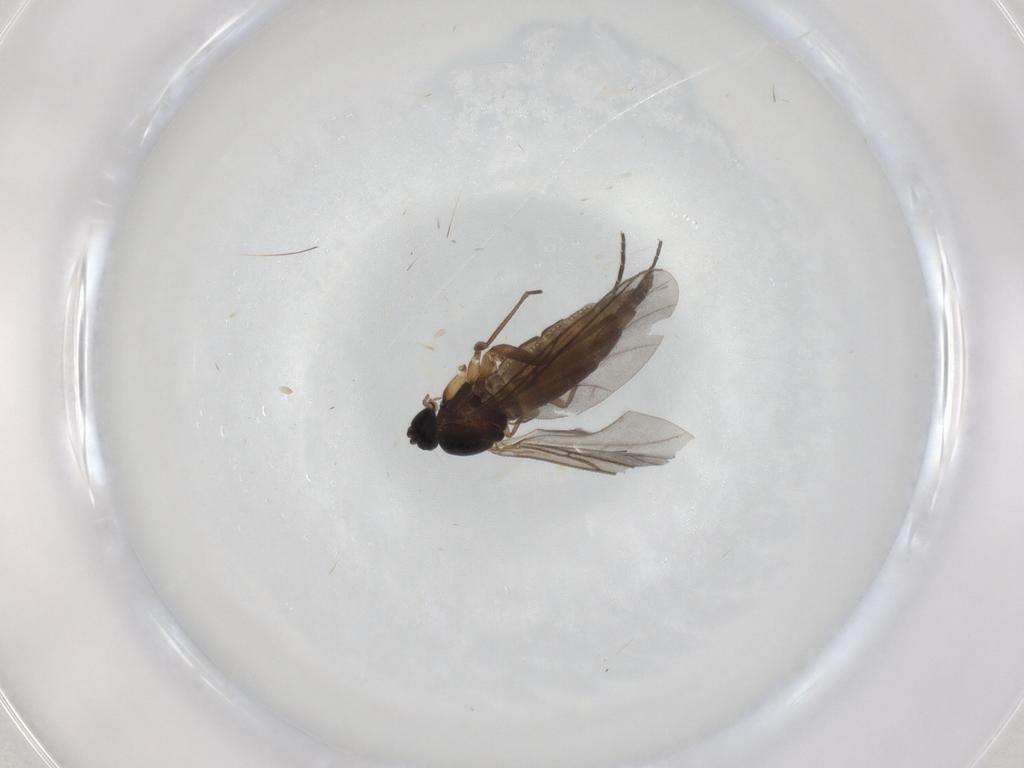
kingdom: Animalia
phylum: Arthropoda
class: Insecta
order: Diptera
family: Sciaridae
